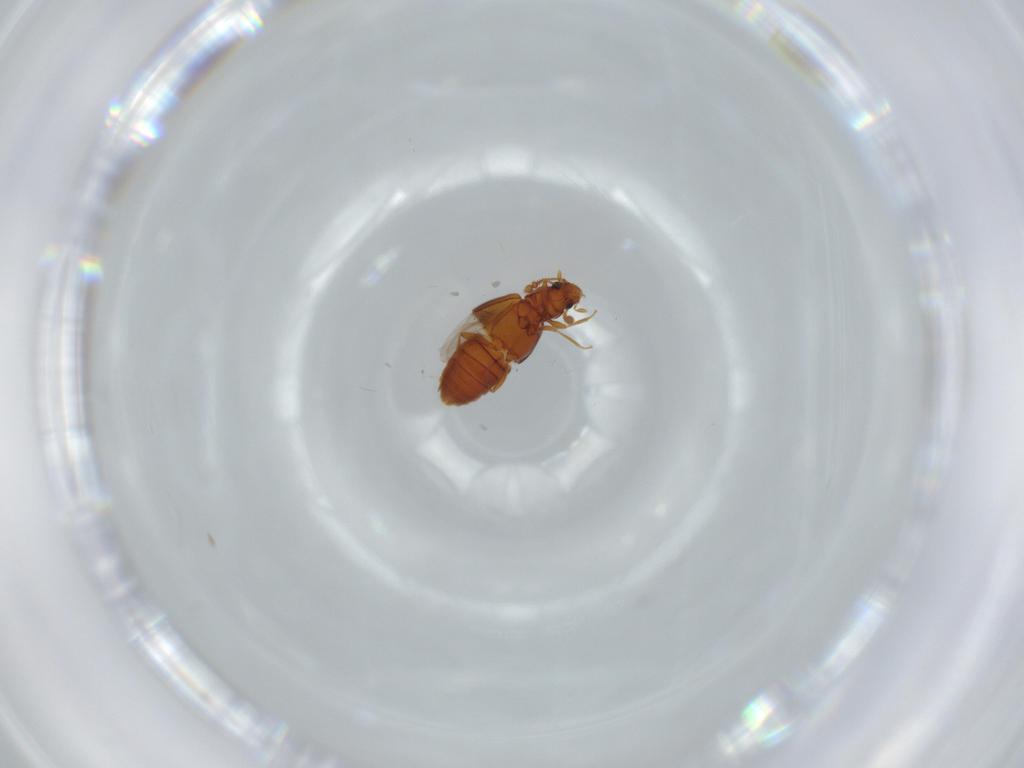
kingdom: Animalia
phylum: Arthropoda
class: Insecta
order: Coleoptera
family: Staphylinidae
